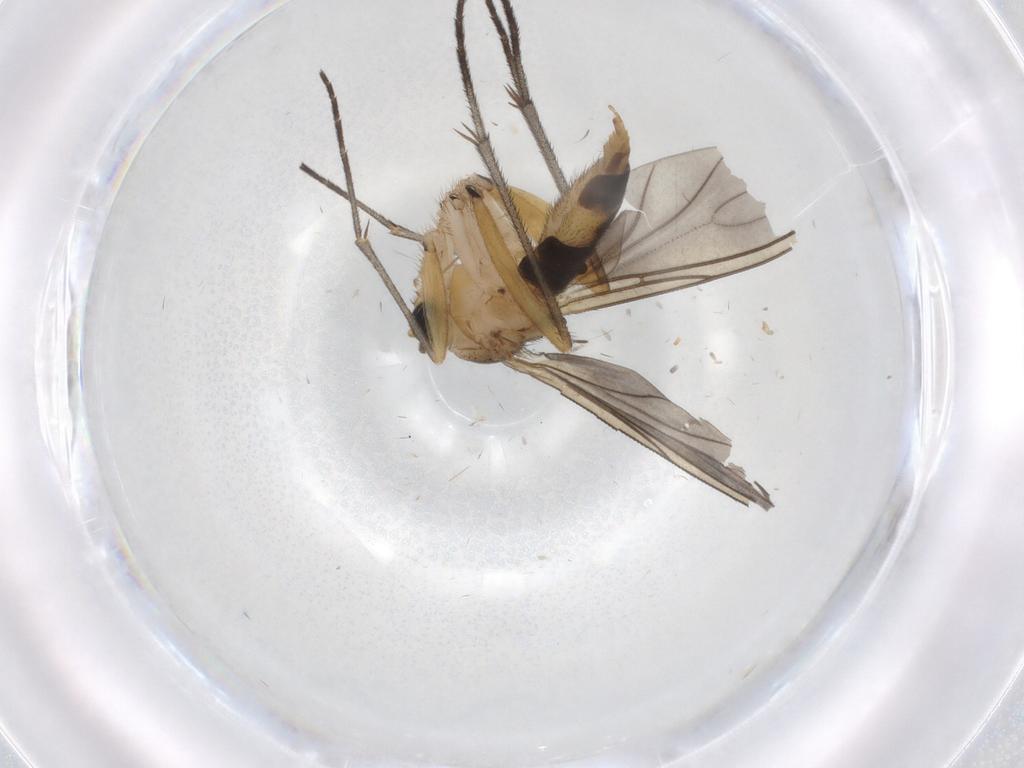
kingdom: Animalia
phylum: Arthropoda
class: Insecta
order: Diptera
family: Sciaridae
